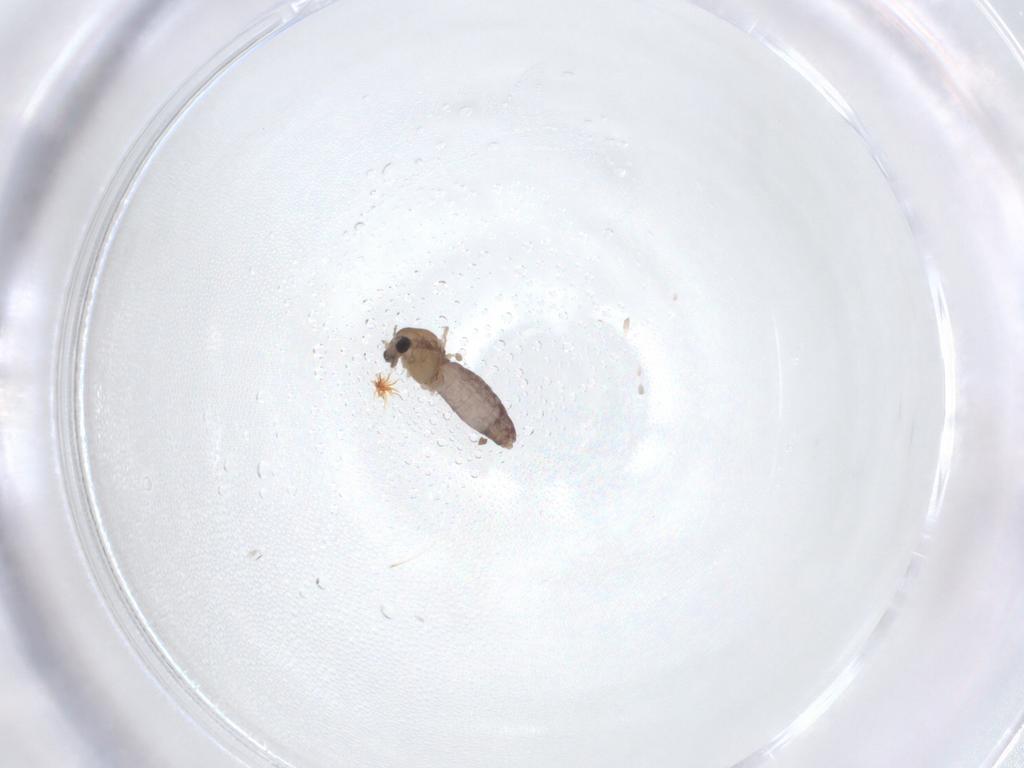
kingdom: Animalia
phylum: Arthropoda
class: Insecta
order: Diptera
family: Chironomidae
